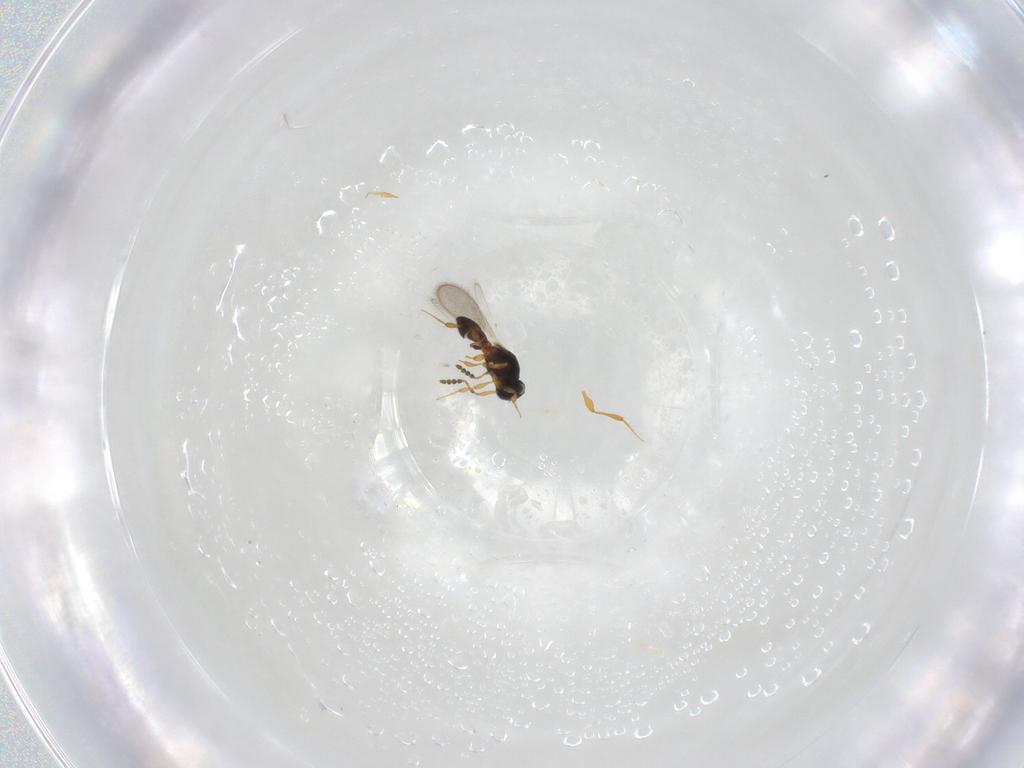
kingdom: Animalia
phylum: Arthropoda
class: Insecta
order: Hymenoptera
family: Platygastridae
